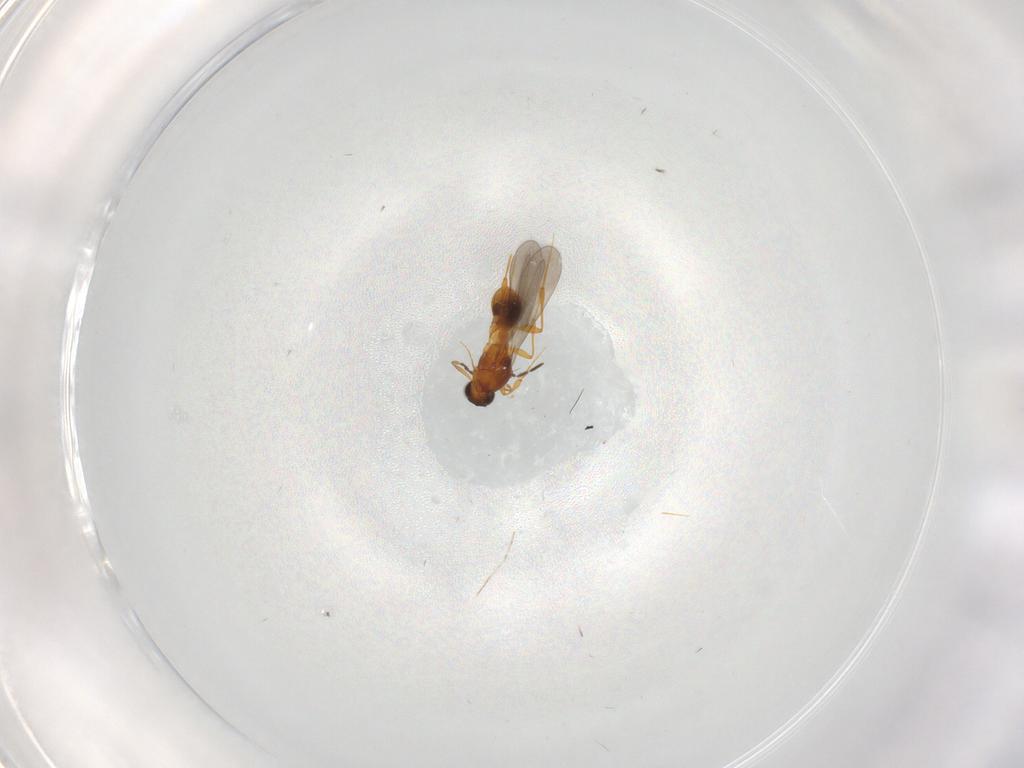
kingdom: Animalia
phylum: Arthropoda
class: Insecta
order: Hymenoptera
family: Platygastridae
